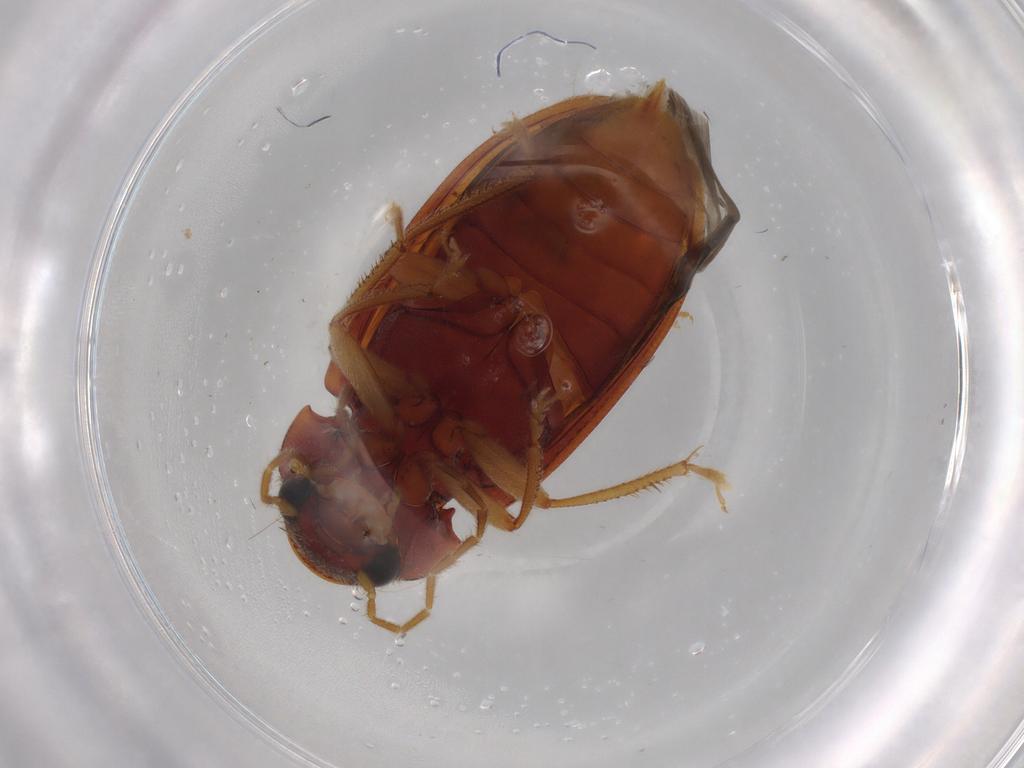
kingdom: Animalia
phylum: Arthropoda
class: Insecta
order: Coleoptera
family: Ptilodactylidae
